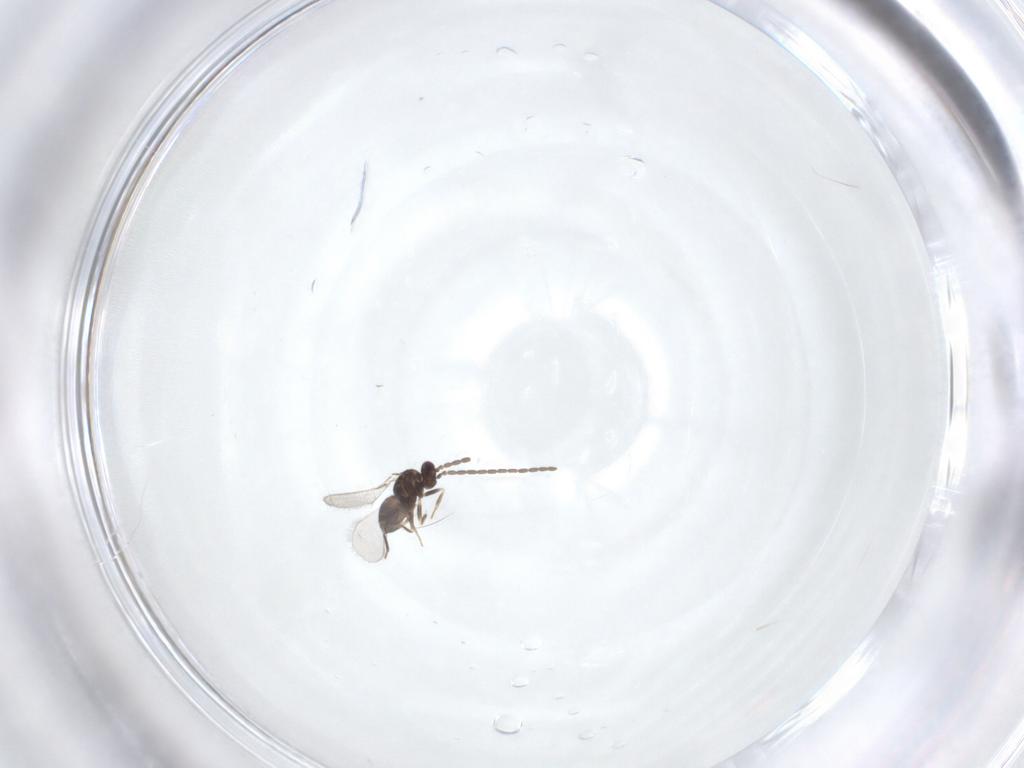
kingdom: Animalia
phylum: Arthropoda
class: Insecta
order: Hymenoptera
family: Mymaridae
